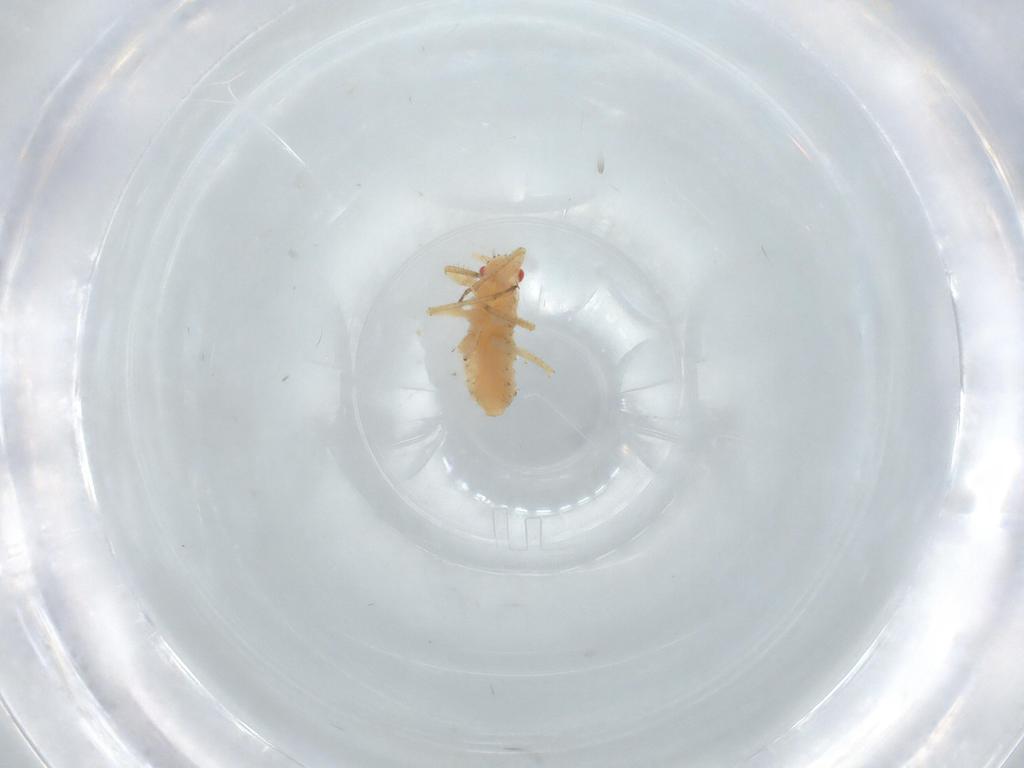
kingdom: Animalia
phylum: Arthropoda
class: Insecta
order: Hemiptera
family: Aphididae
